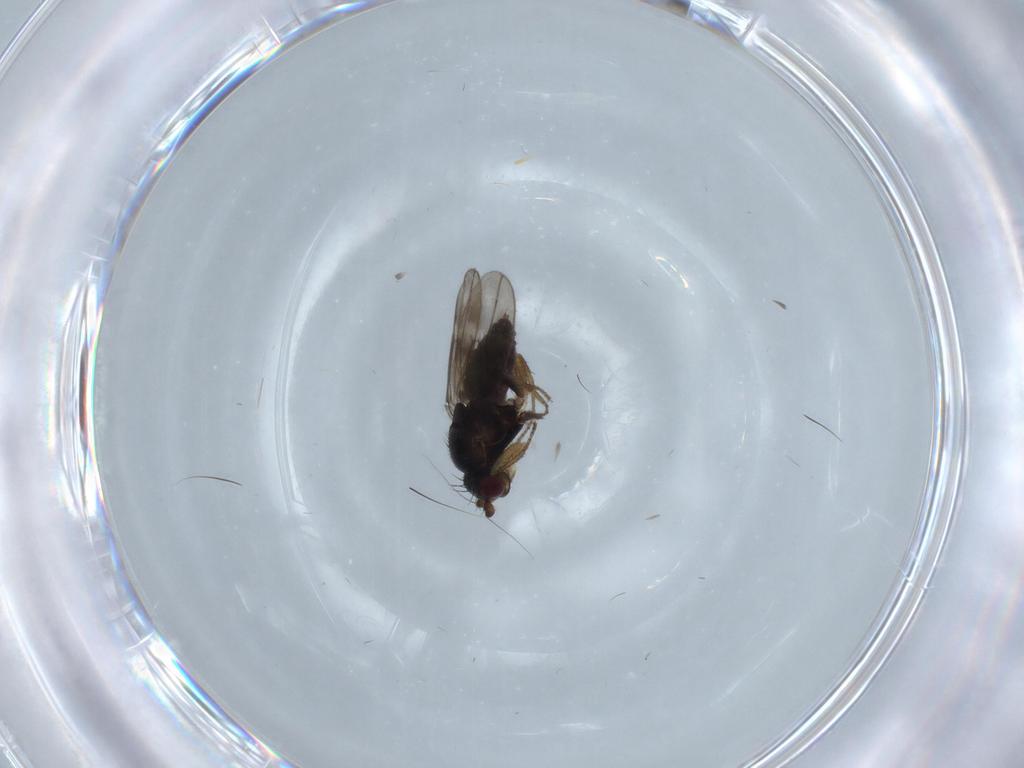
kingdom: Animalia
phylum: Arthropoda
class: Insecta
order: Diptera
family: Sphaeroceridae
